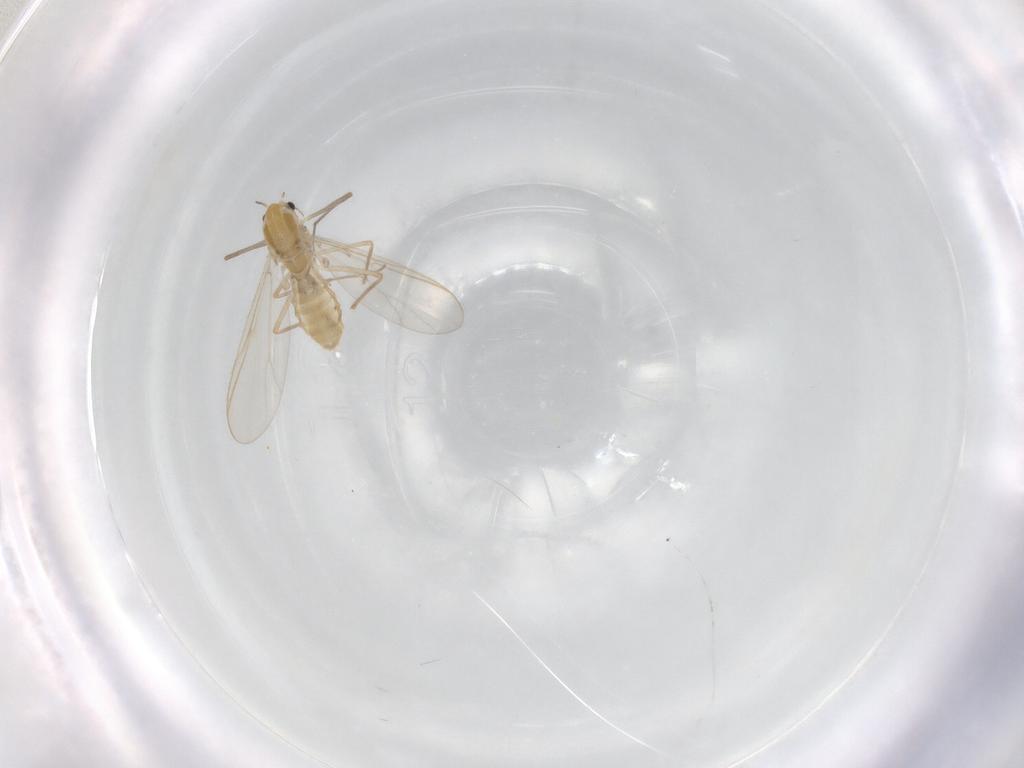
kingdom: Animalia
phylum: Arthropoda
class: Insecta
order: Diptera
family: Chironomidae
